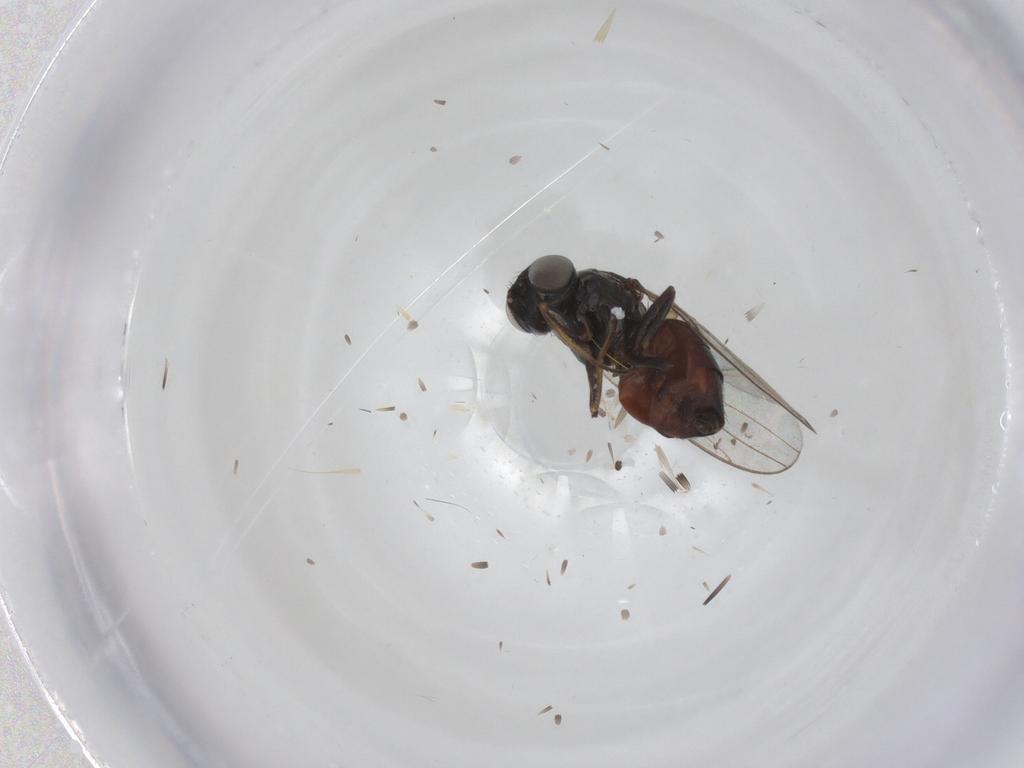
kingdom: Animalia
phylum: Arthropoda
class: Insecta
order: Diptera
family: Chloropidae
